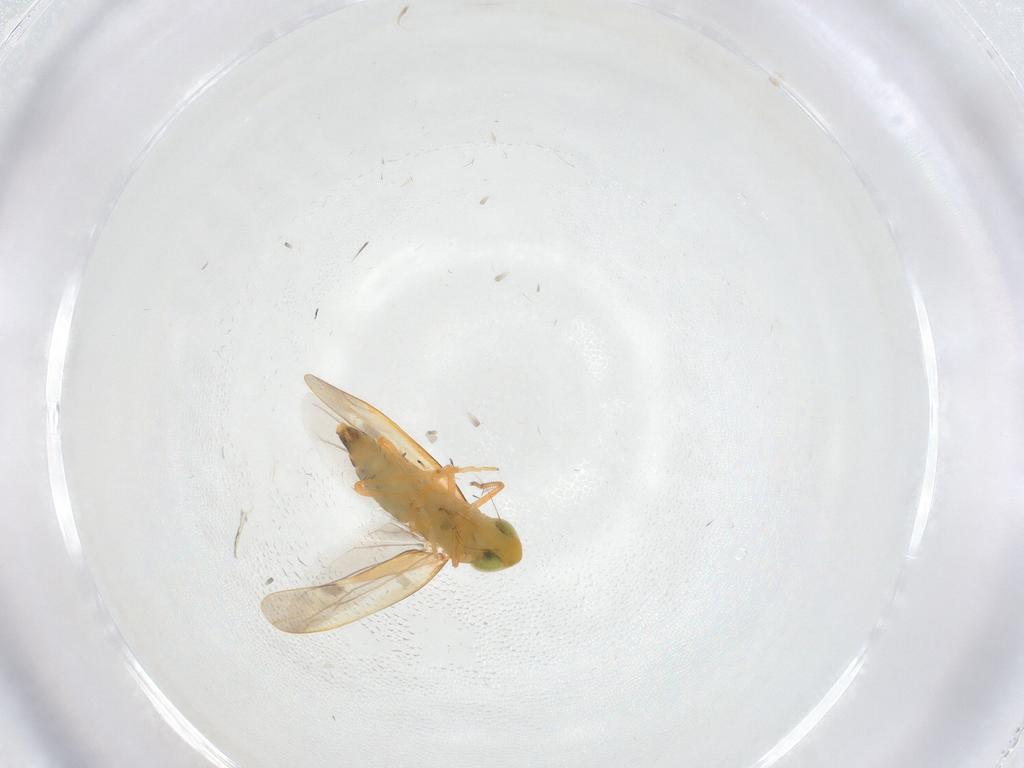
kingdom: Animalia
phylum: Arthropoda
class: Insecta
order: Hemiptera
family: Cicadellidae
